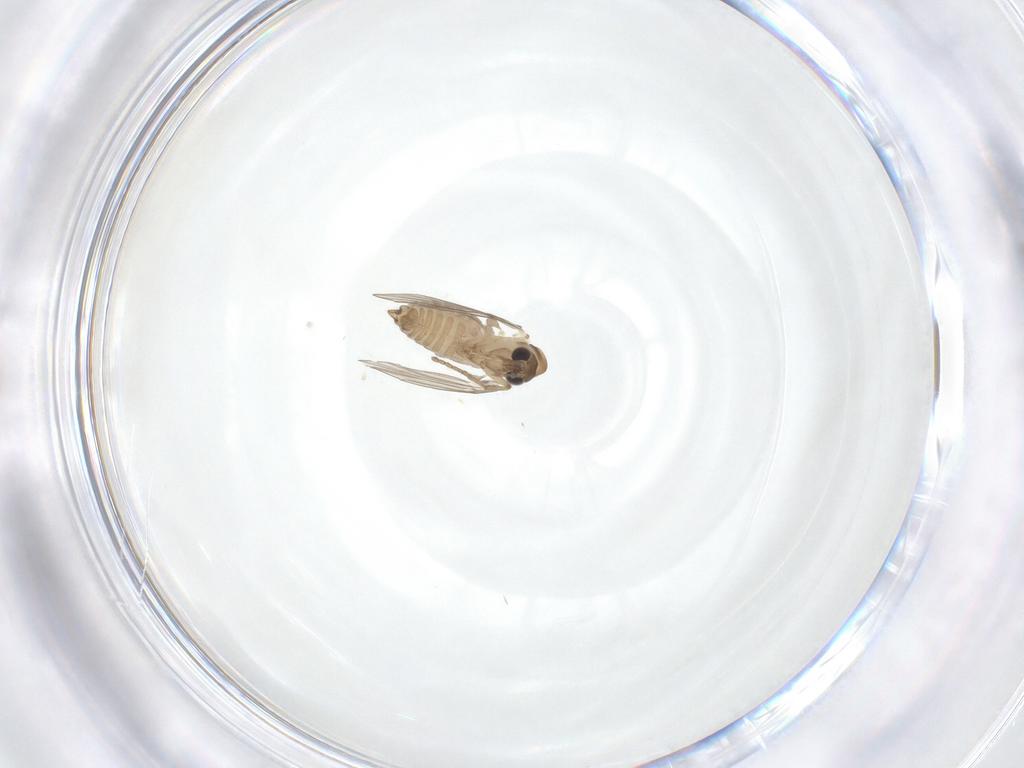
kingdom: Animalia
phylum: Arthropoda
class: Insecta
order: Diptera
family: Psychodidae
